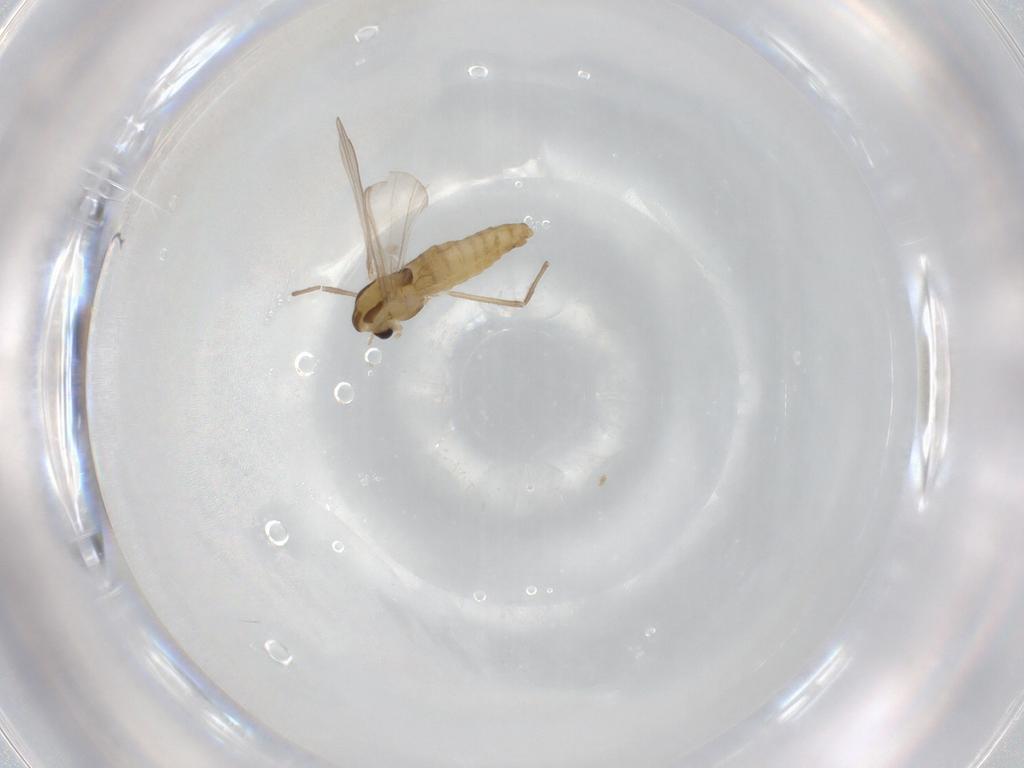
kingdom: Animalia
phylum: Arthropoda
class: Insecta
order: Diptera
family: Chironomidae
